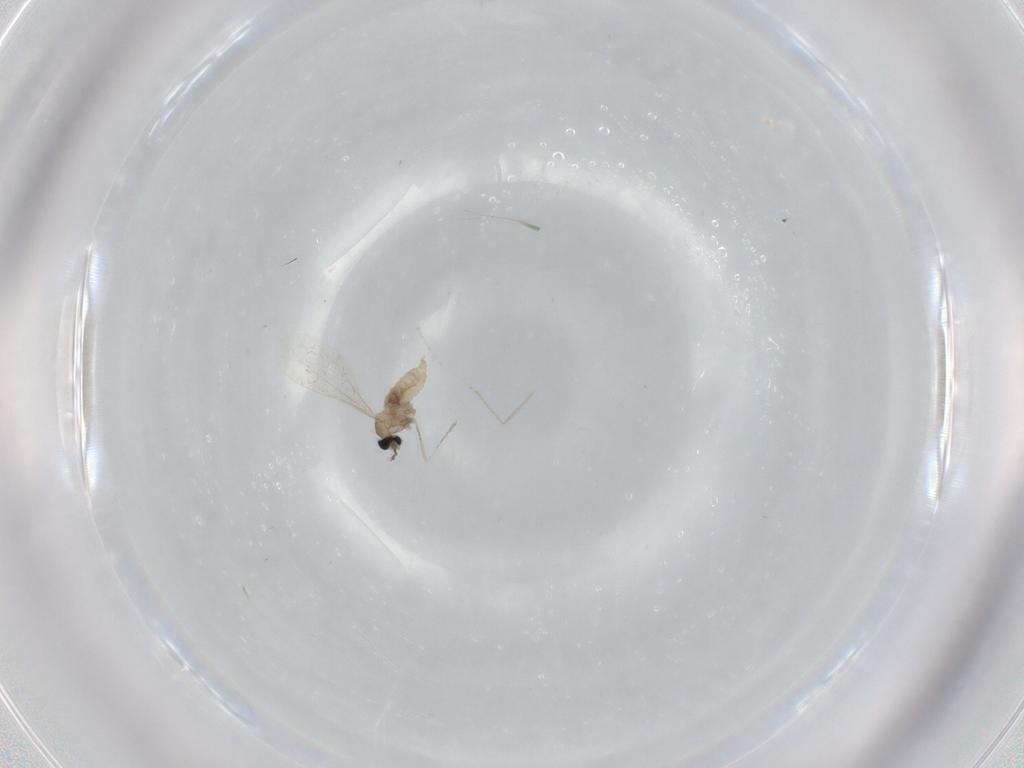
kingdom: Animalia
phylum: Arthropoda
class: Insecta
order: Diptera
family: Cecidomyiidae
